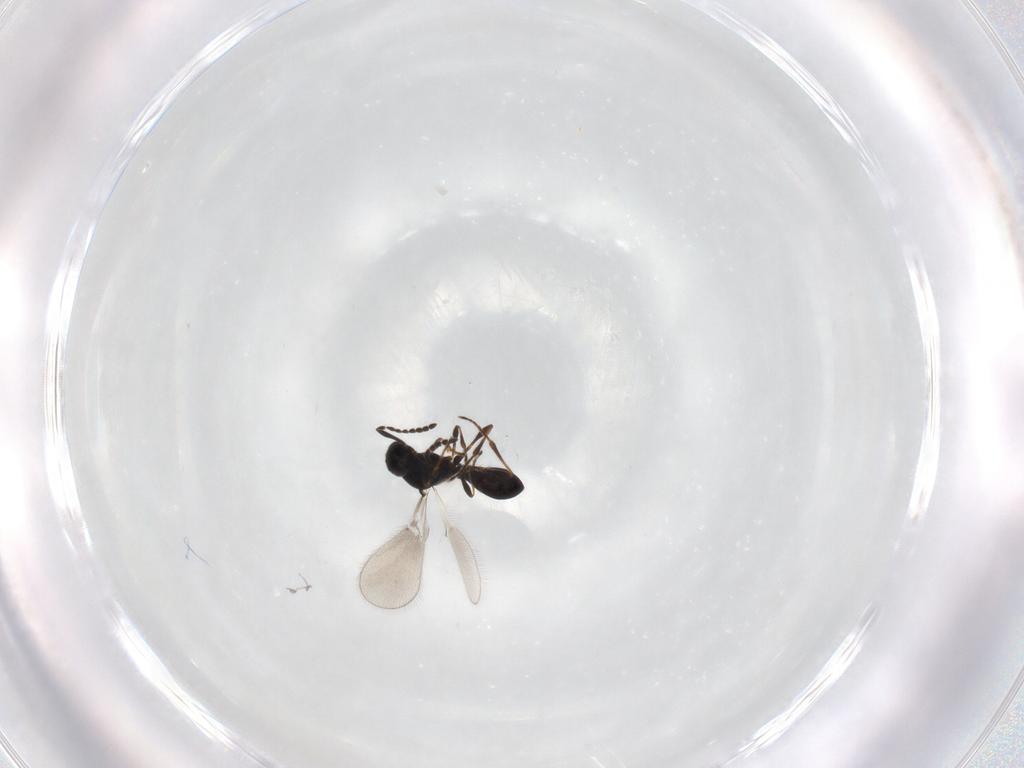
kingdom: Animalia
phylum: Arthropoda
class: Insecta
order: Hymenoptera
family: Platygastridae
